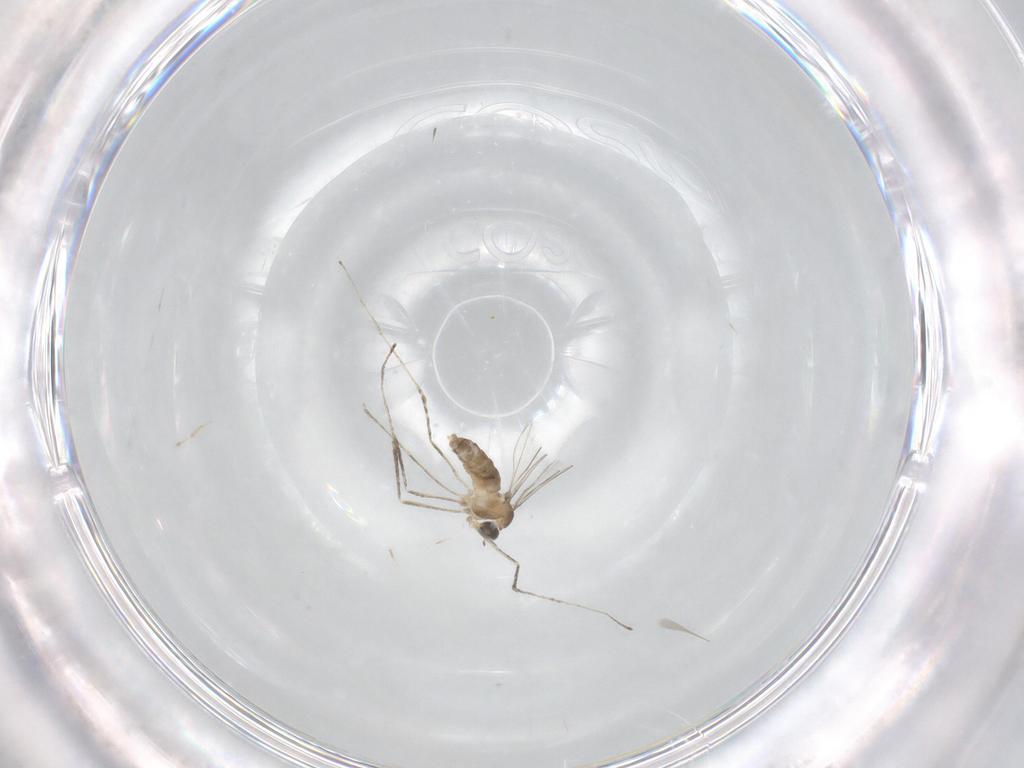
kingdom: Animalia
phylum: Arthropoda
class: Insecta
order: Diptera
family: Cecidomyiidae
